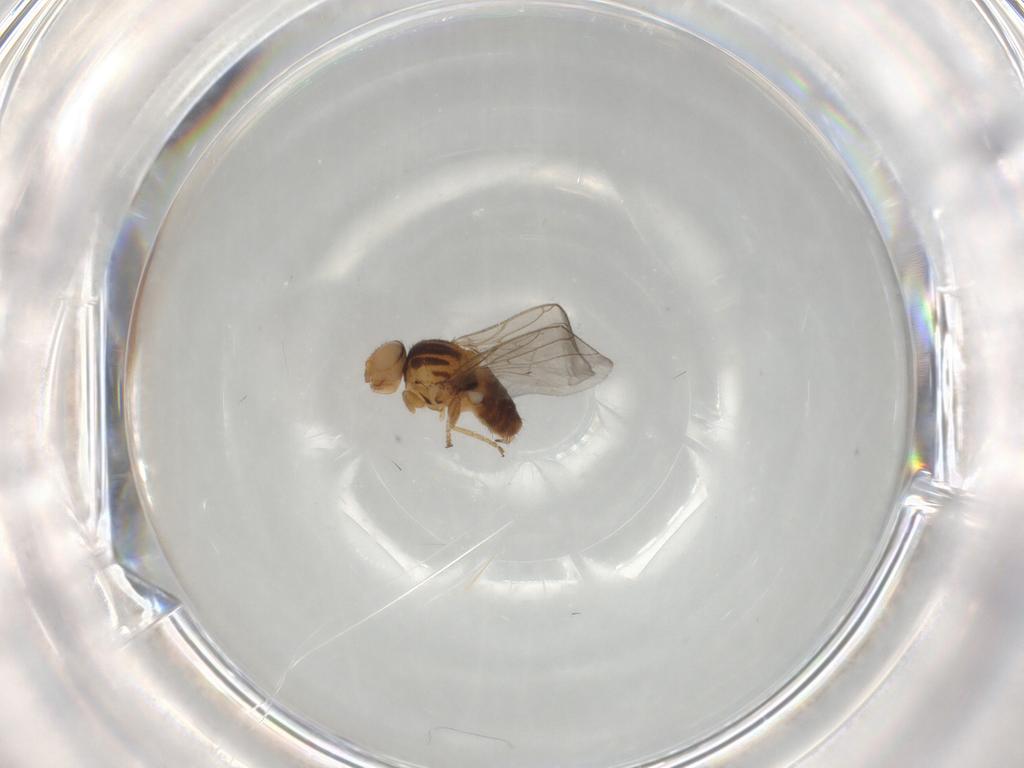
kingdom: Animalia
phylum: Arthropoda
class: Insecta
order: Diptera
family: Chloropidae
